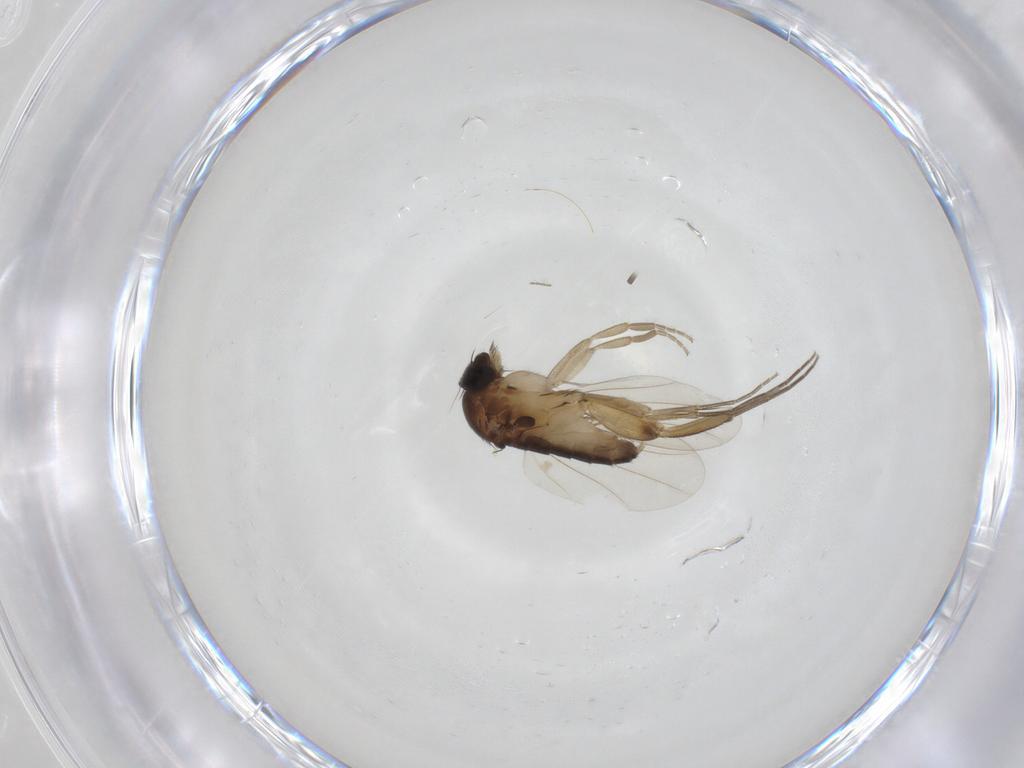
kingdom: Animalia
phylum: Arthropoda
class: Insecta
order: Diptera
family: Phoridae
